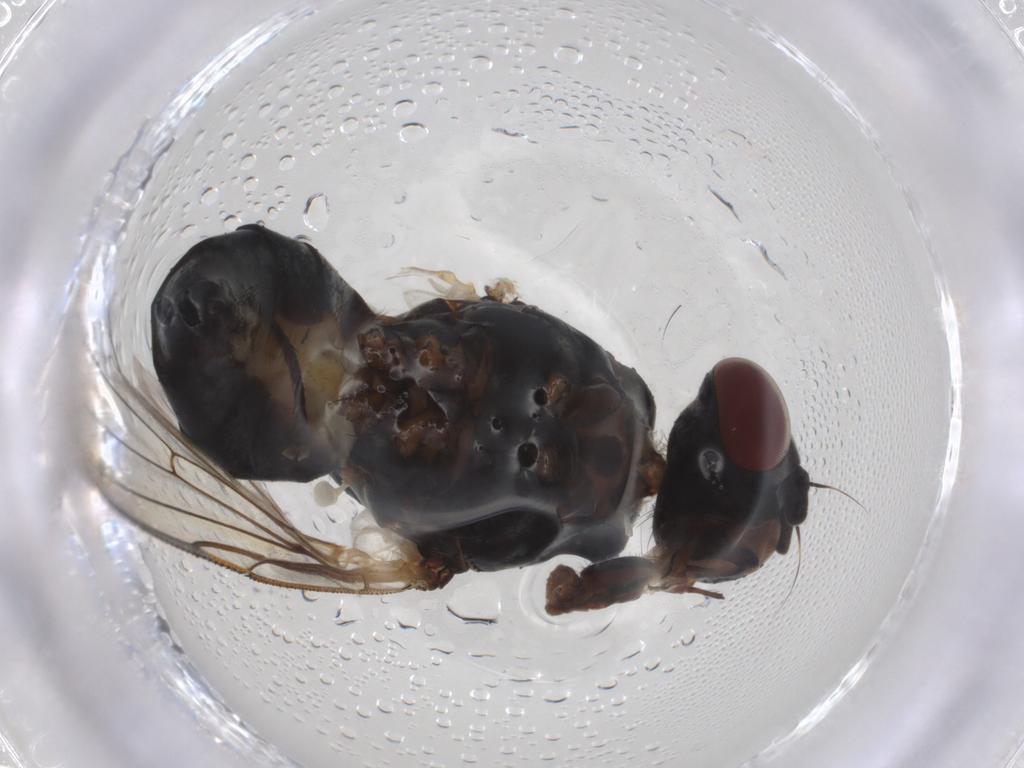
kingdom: Animalia
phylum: Arthropoda
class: Insecta
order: Diptera
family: Anthomyiidae
